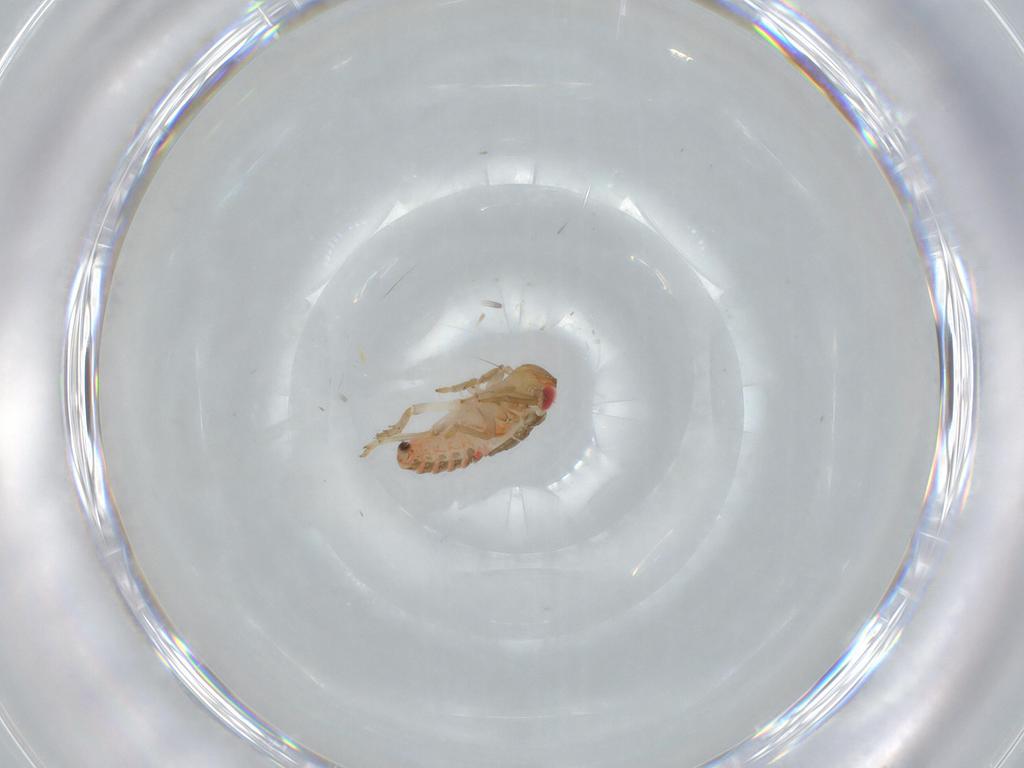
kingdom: Animalia
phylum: Arthropoda
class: Insecta
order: Hemiptera
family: Issidae
